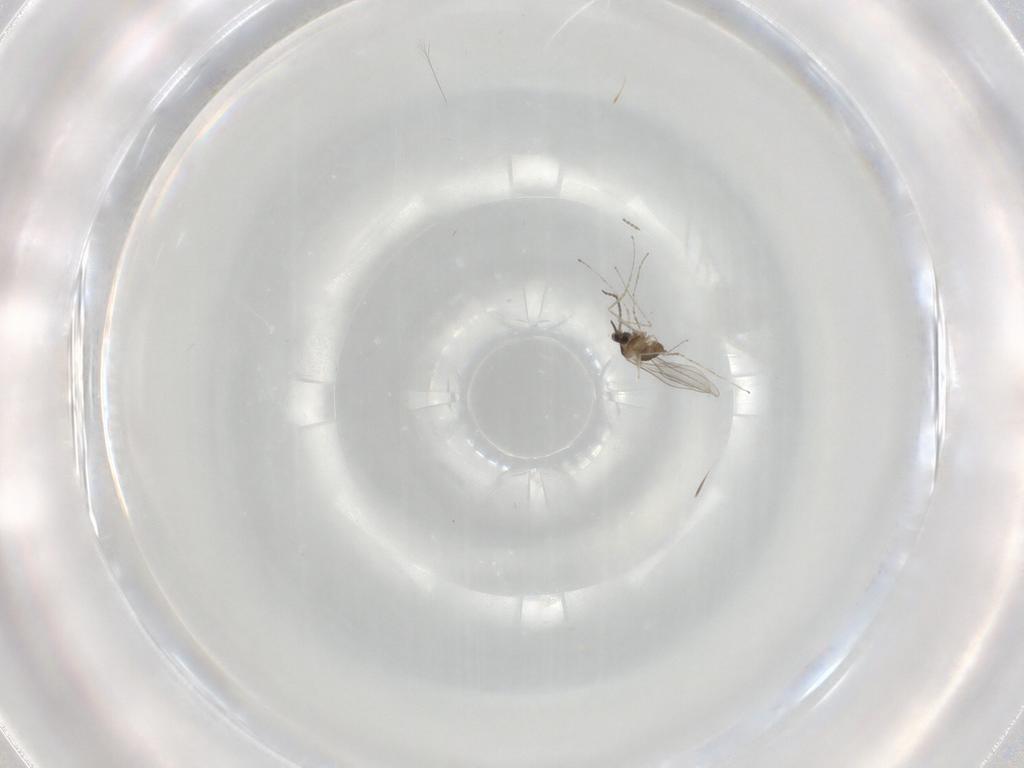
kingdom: Animalia
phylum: Arthropoda
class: Insecta
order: Diptera
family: Cecidomyiidae
